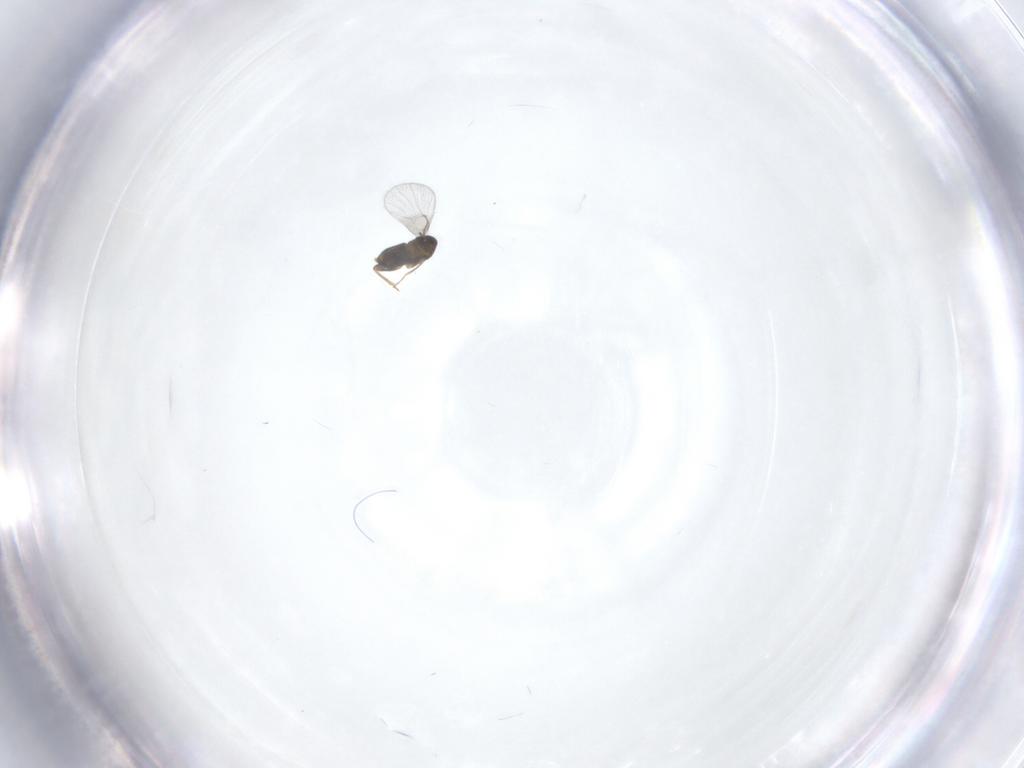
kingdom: Animalia
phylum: Arthropoda
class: Insecta
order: Hymenoptera
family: Trichogrammatidae
